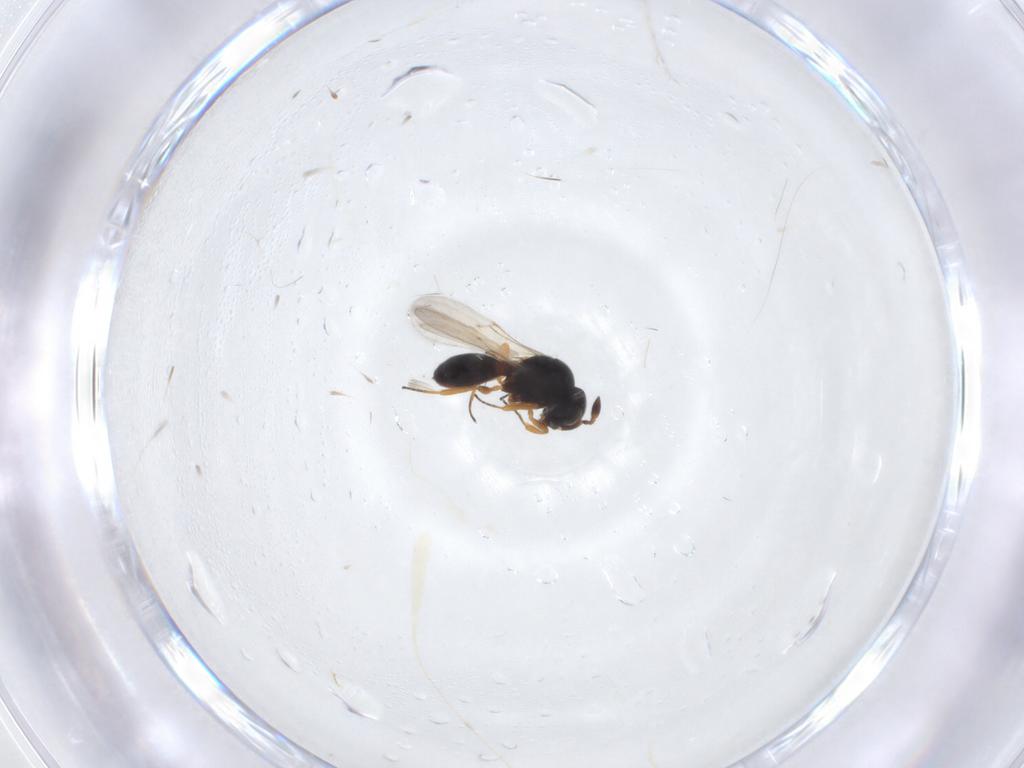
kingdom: Animalia
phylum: Arthropoda
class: Insecta
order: Hymenoptera
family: Scelionidae
